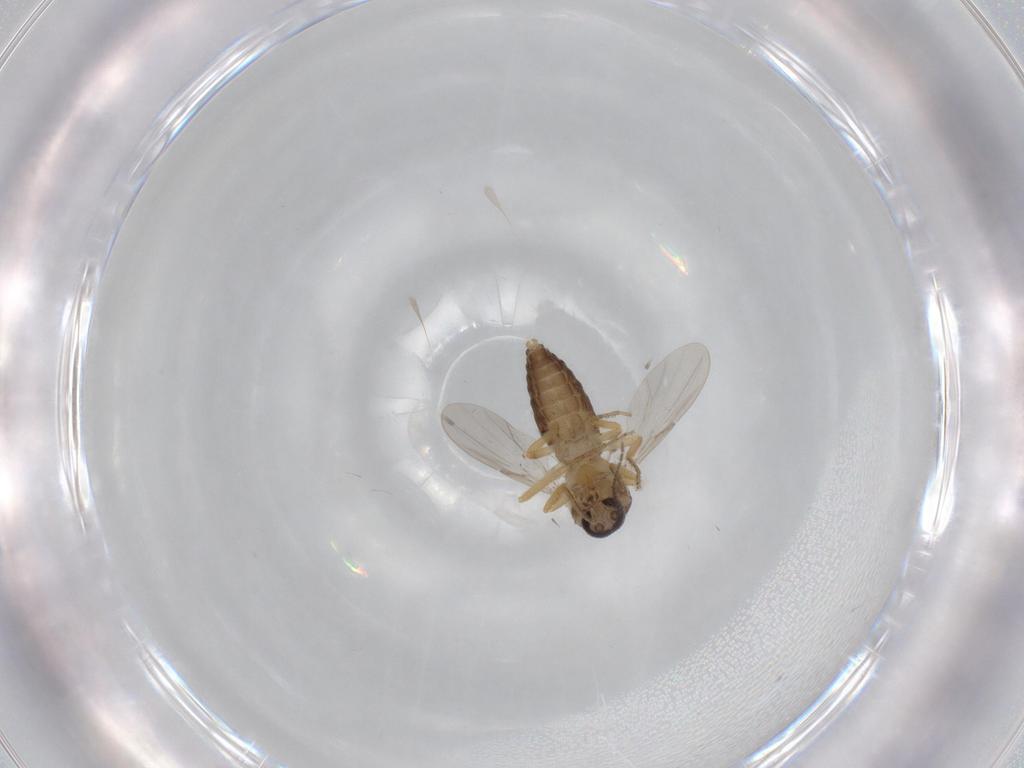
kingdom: Animalia
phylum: Arthropoda
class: Insecta
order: Diptera
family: Ceratopogonidae
